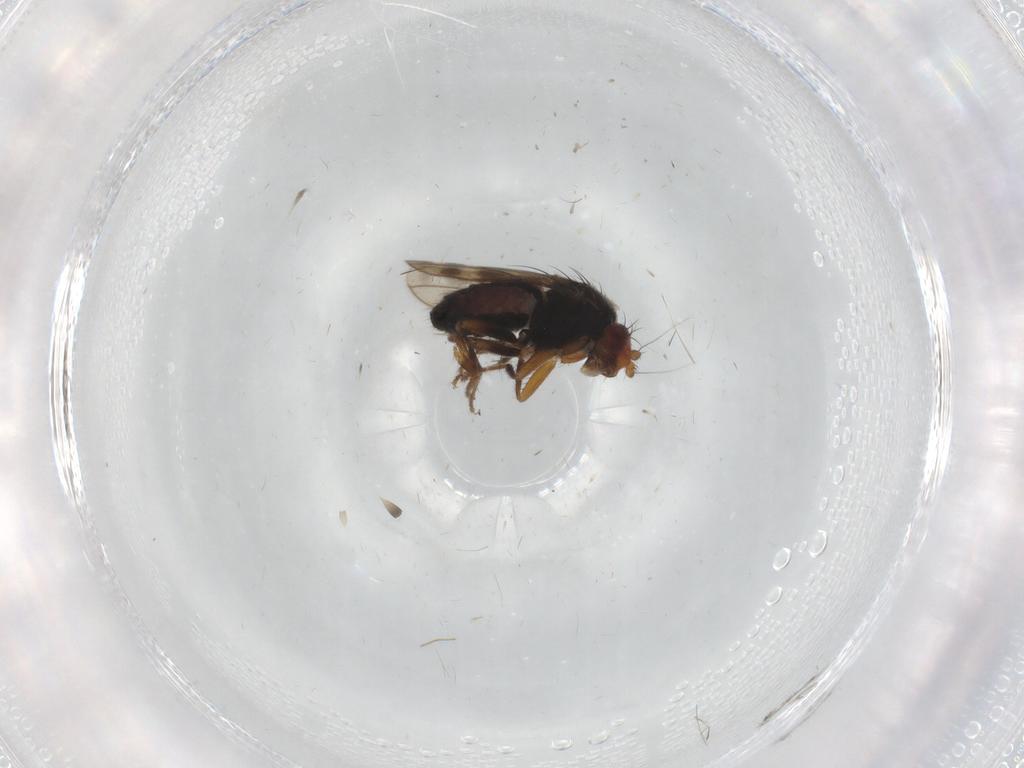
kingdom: Animalia
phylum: Arthropoda
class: Insecta
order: Diptera
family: Cecidomyiidae
